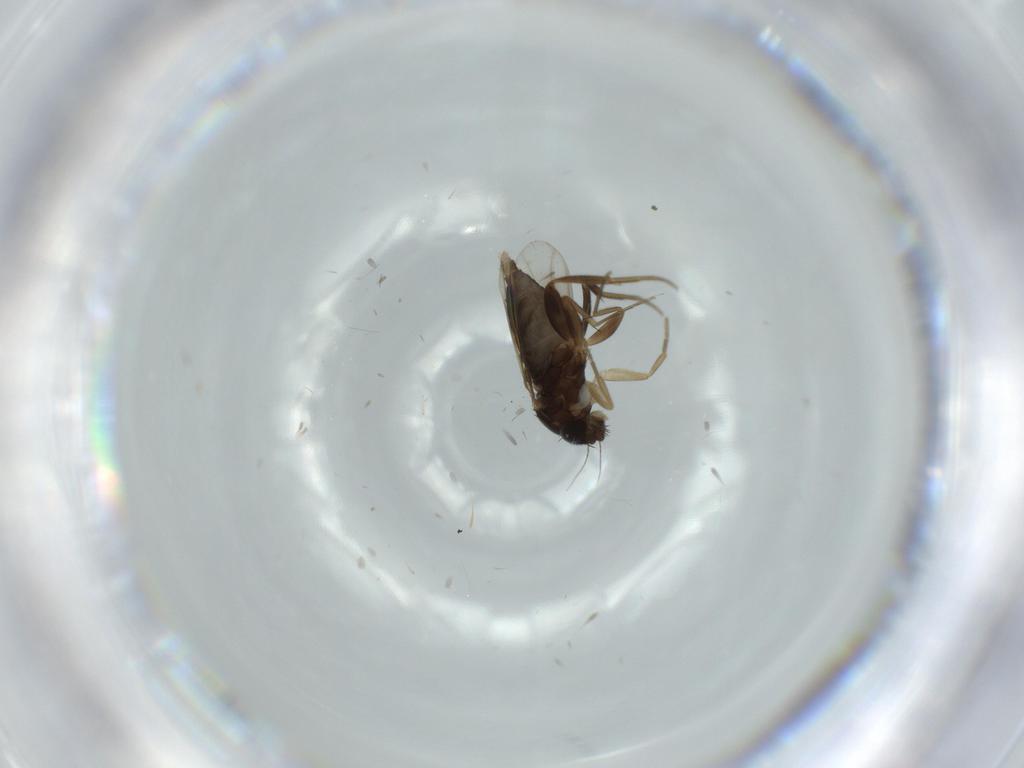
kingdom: Animalia
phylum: Arthropoda
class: Insecta
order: Diptera
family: Phoridae
